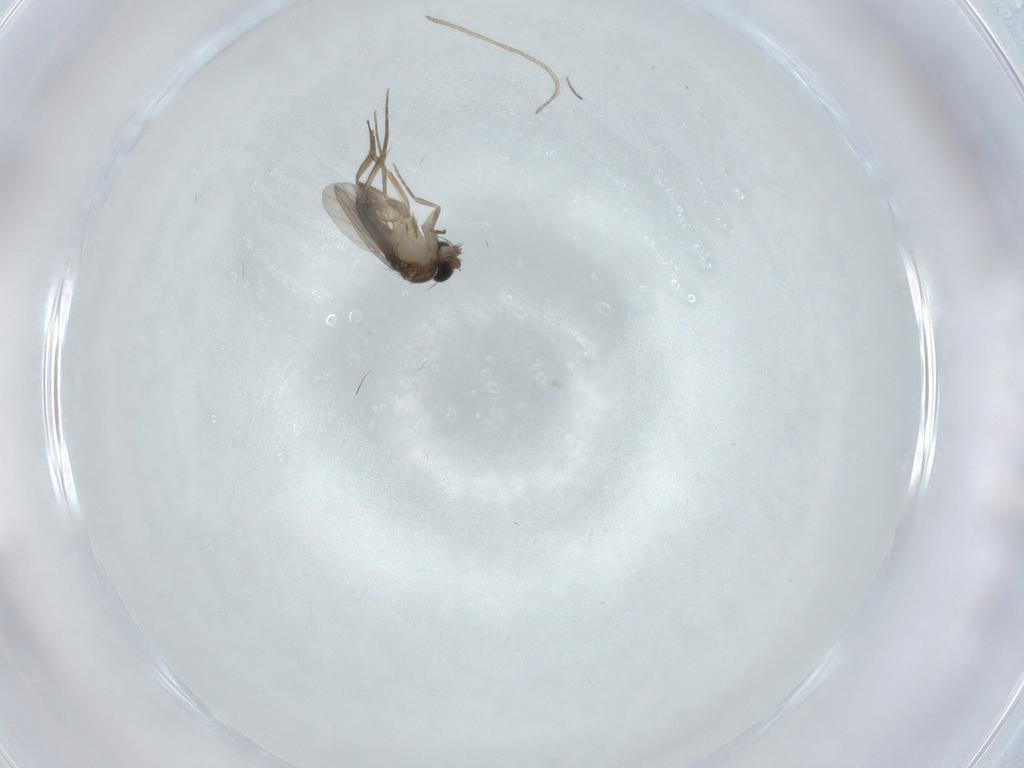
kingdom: Animalia
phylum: Arthropoda
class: Insecta
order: Diptera
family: Phoridae
